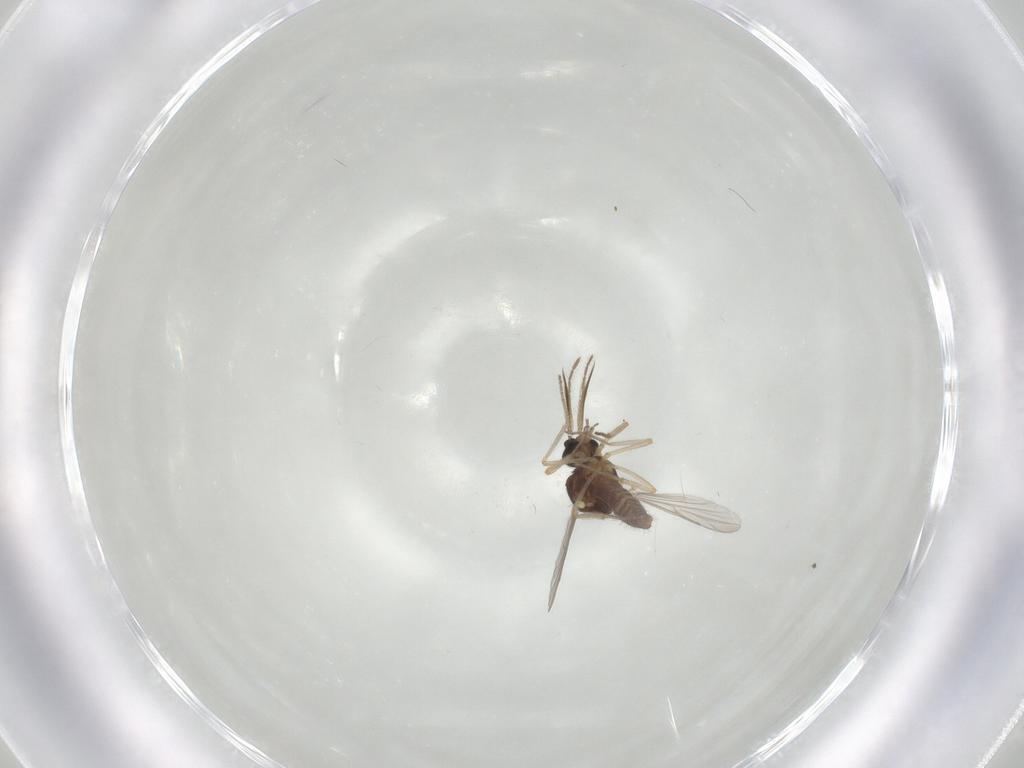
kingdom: Animalia
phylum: Arthropoda
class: Insecta
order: Diptera
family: Ceratopogonidae
